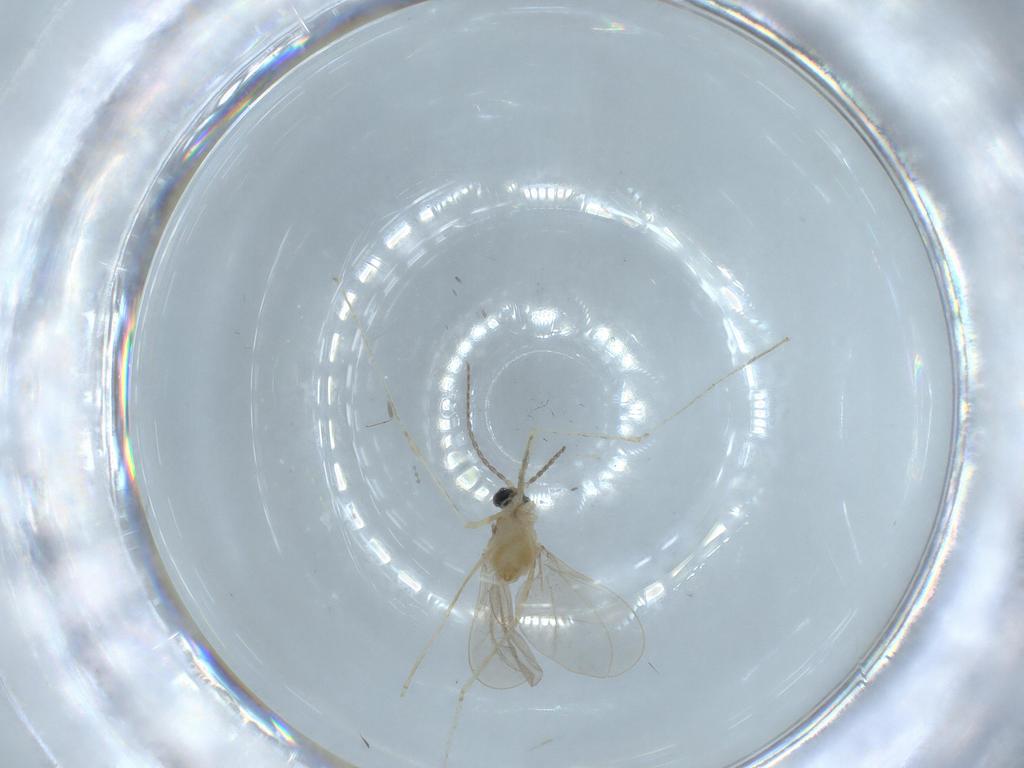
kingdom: Animalia
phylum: Arthropoda
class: Insecta
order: Diptera
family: Cecidomyiidae
